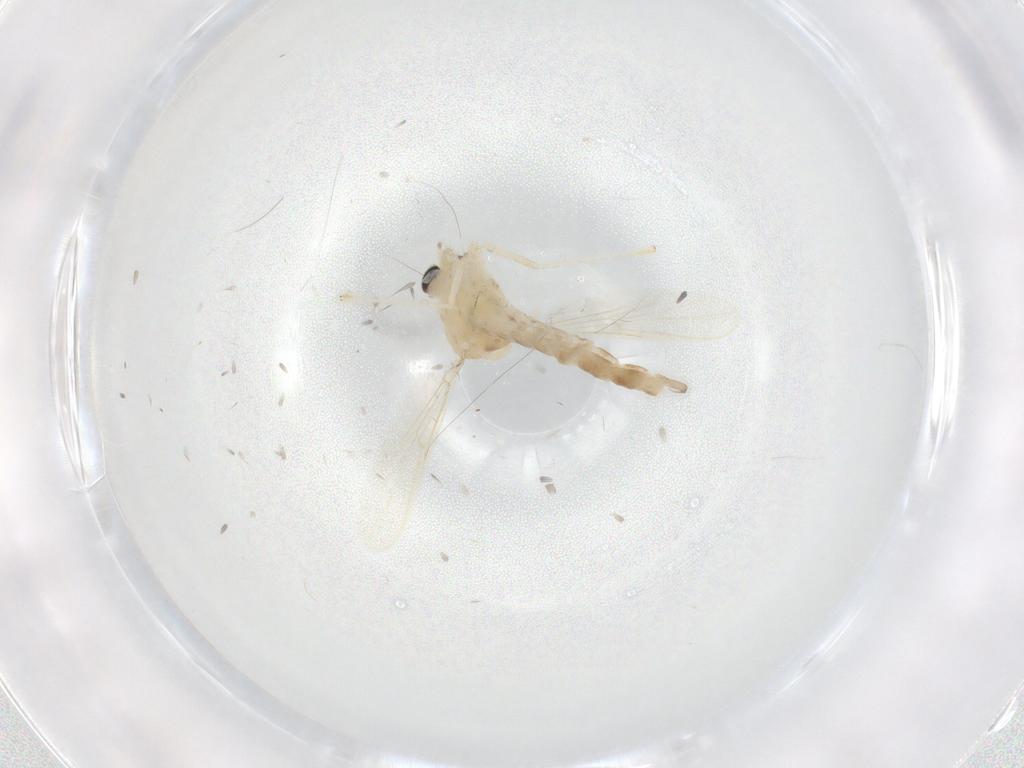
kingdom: Animalia
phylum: Arthropoda
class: Insecta
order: Diptera
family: Chironomidae
